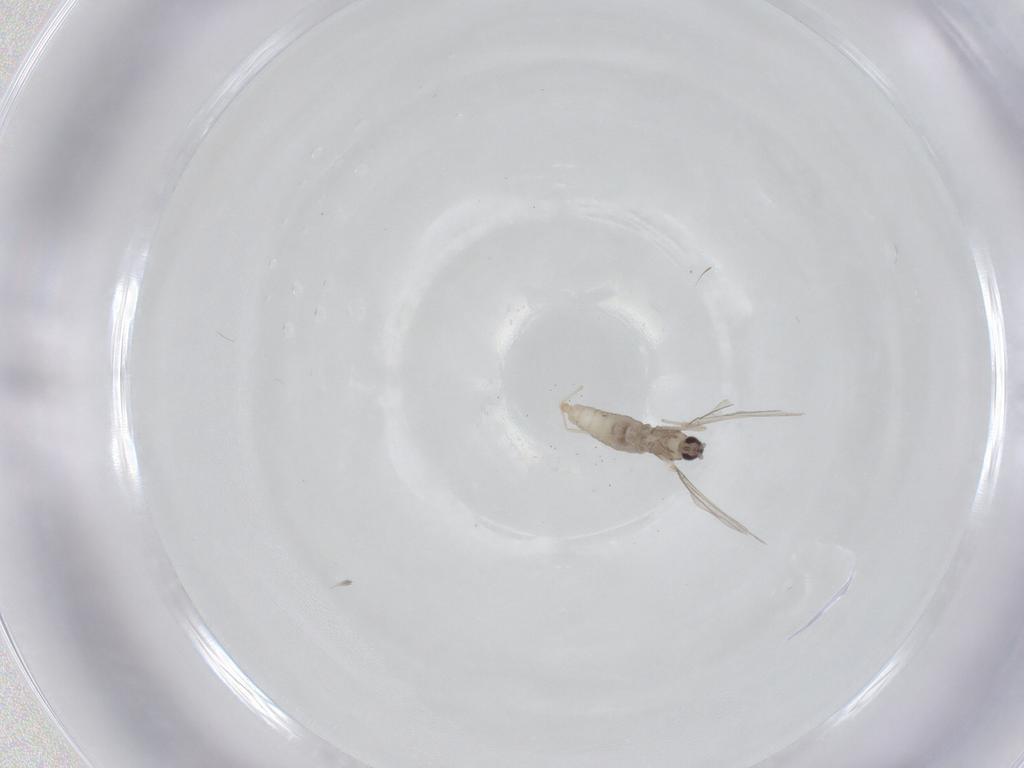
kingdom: Animalia
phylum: Arthropoda
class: Insecta
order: Diptera
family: Cecidomyiidae
